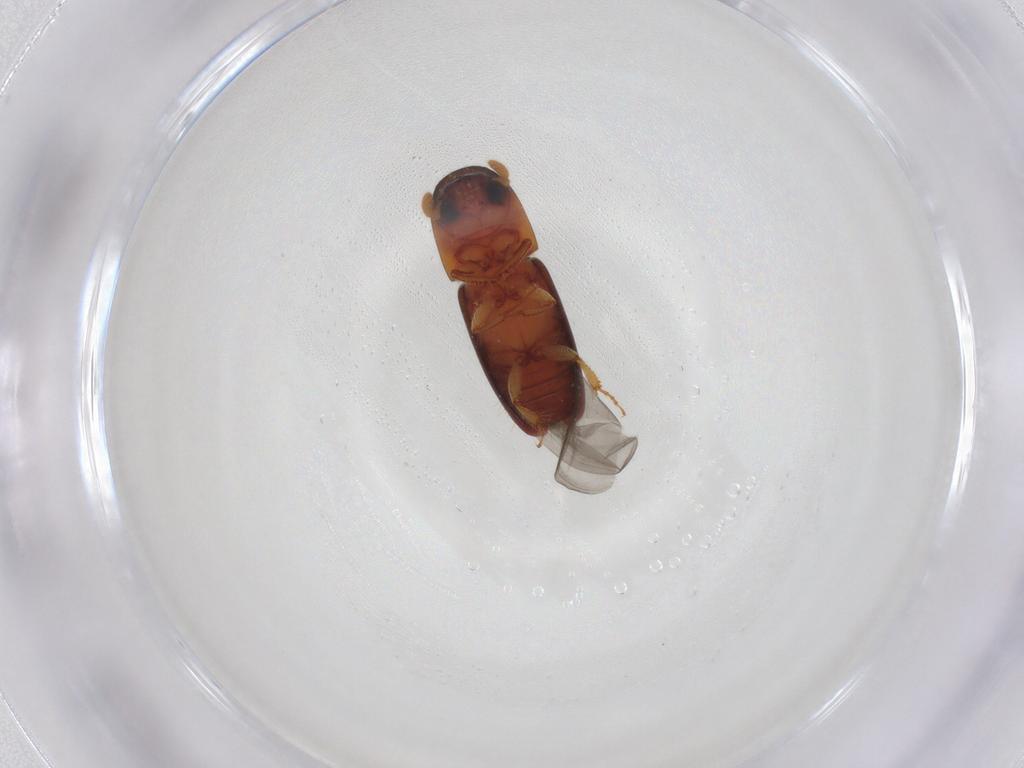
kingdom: Animalia
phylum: Arthropoda
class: Insecta
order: Coleoptera
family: Curculionidae
